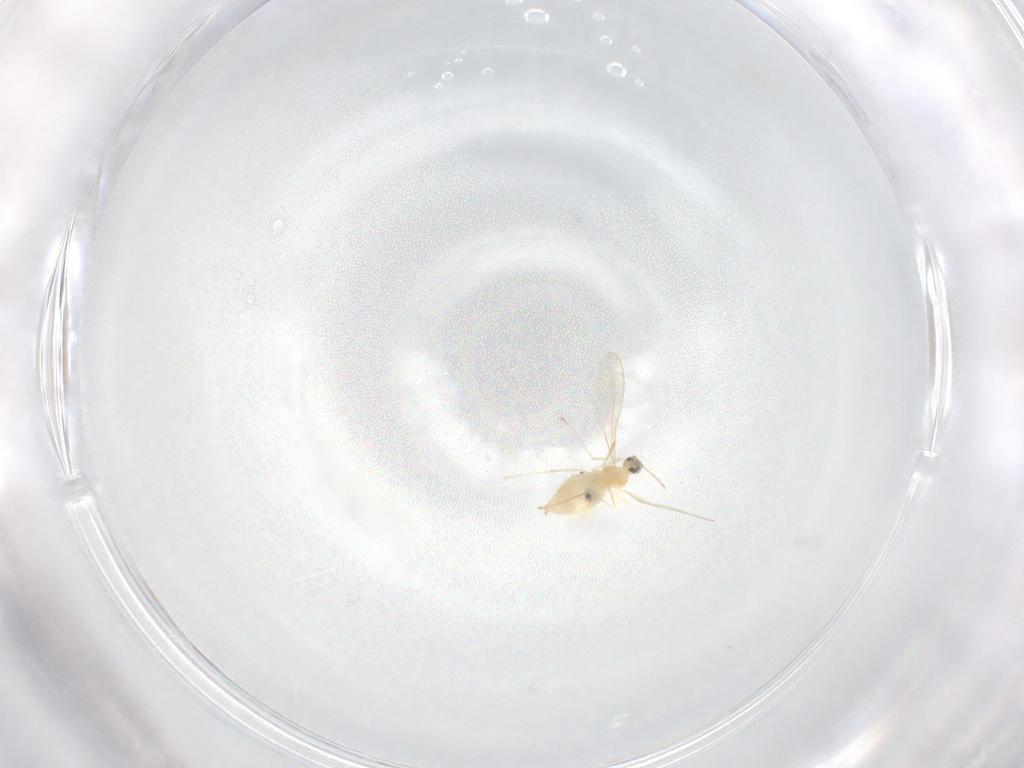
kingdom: Animalia
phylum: Arthropoda
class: Insecta
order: Diptera
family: Cecidomyiidae
